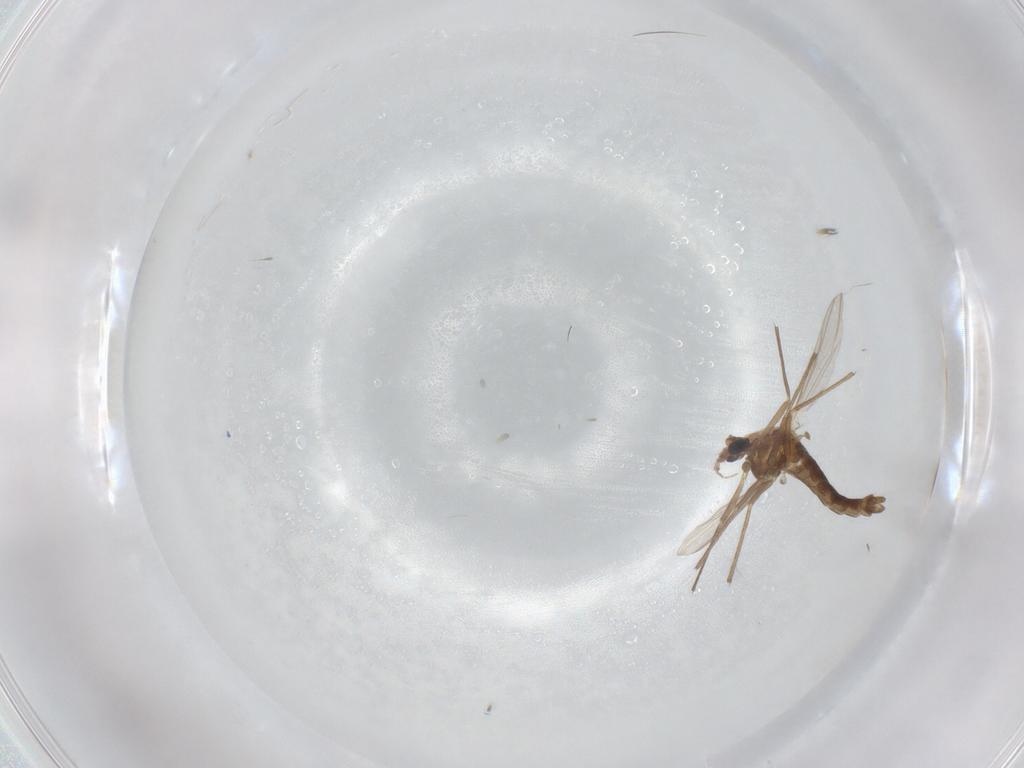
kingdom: Animalia
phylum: Arthropoda
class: Insecta
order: Diptera
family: Chironomidae
